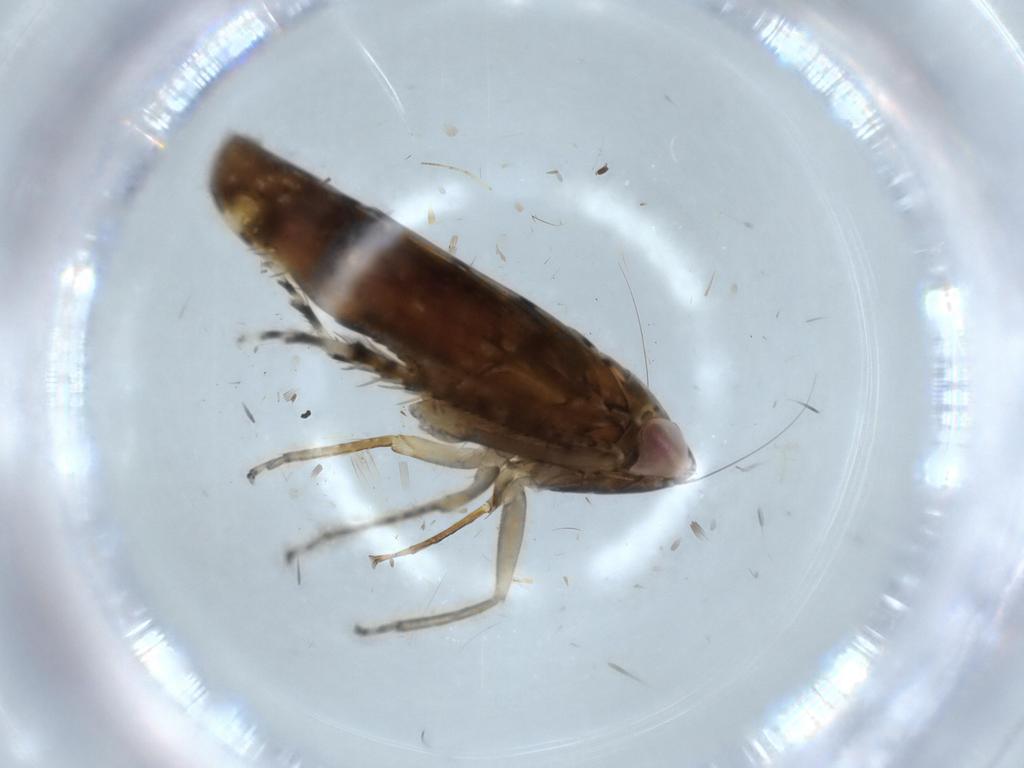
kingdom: Animalia
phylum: Arthropoda
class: Insecta
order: Hemiptera
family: Cicadellidae
